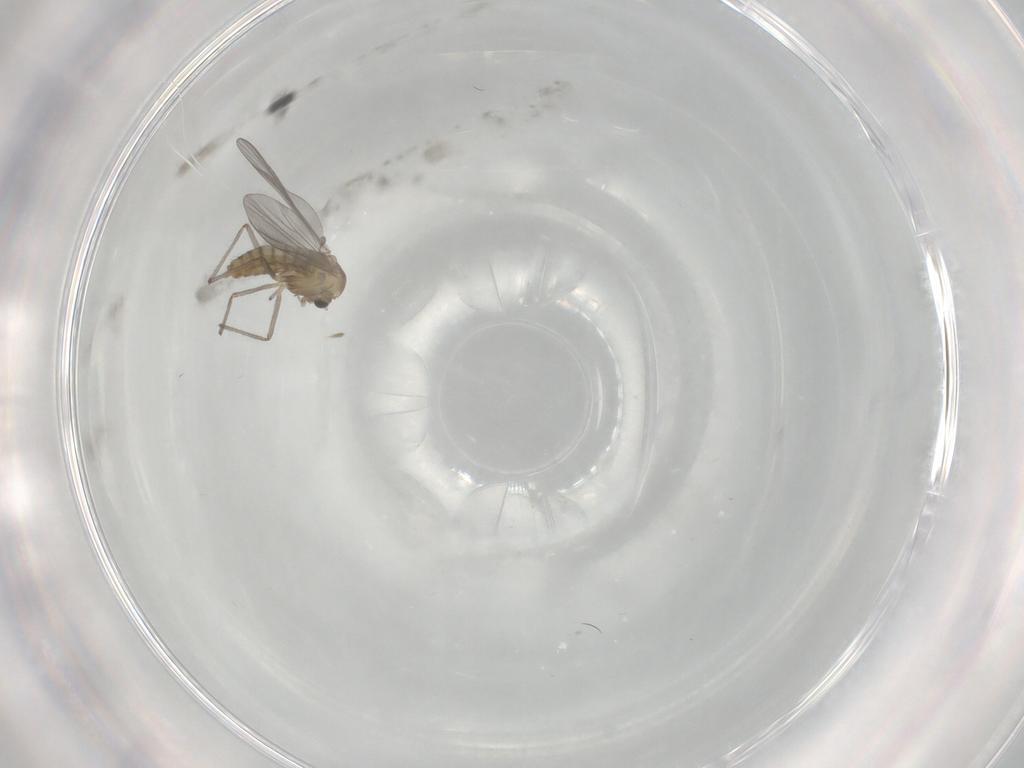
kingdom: Animalia
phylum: Arthropoda
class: Insecta
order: Diptera
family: Chironomidae
